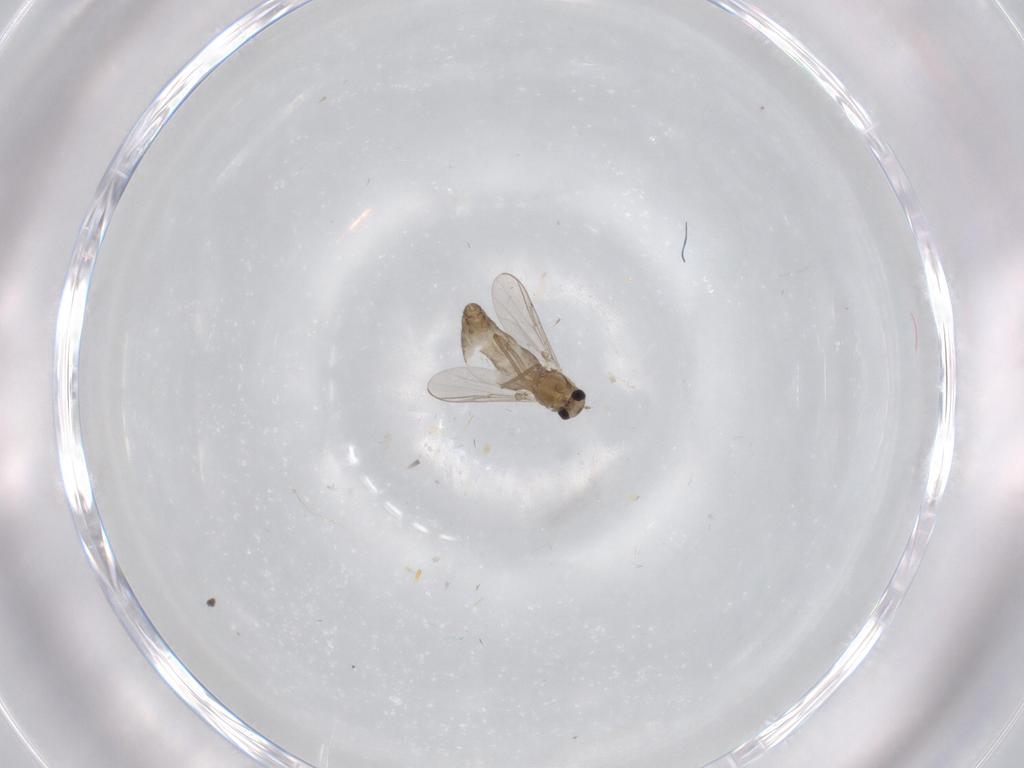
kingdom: Animalia
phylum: Arthropoda
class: Insecta
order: Diptera
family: Chironomidae
